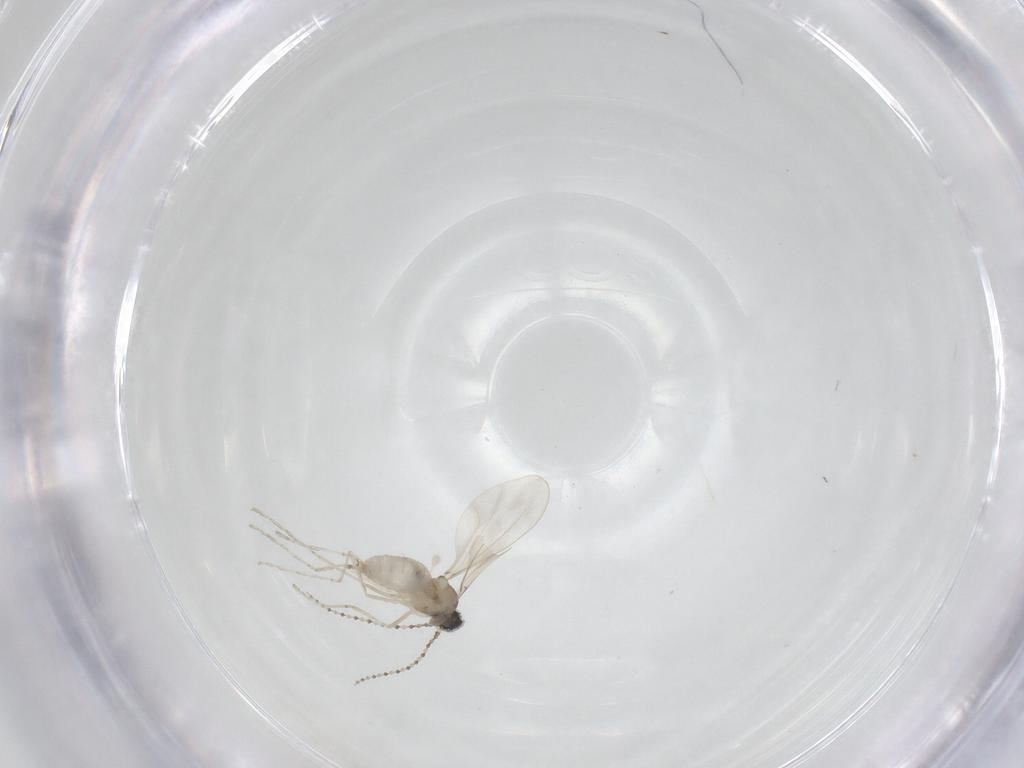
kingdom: Animalia
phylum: Arthropoda
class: Insecta
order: Diptera
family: Cecidomyiidae
